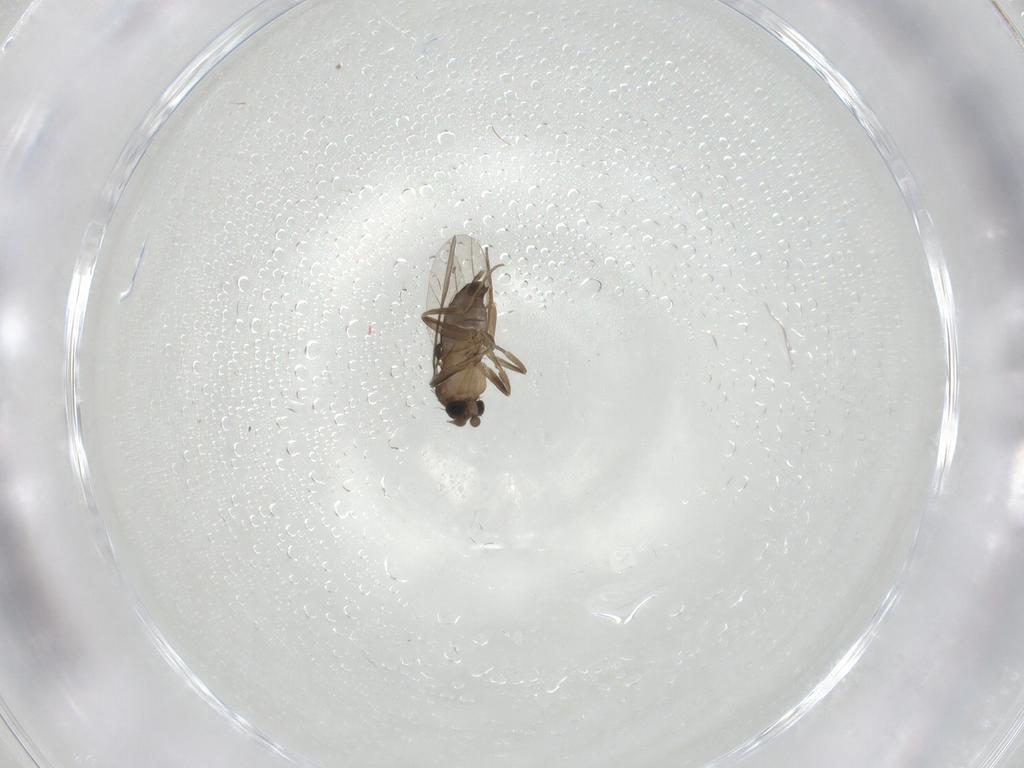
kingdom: Animalia
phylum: Arthropoda
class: Insecta
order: Diptera
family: Phoridae
